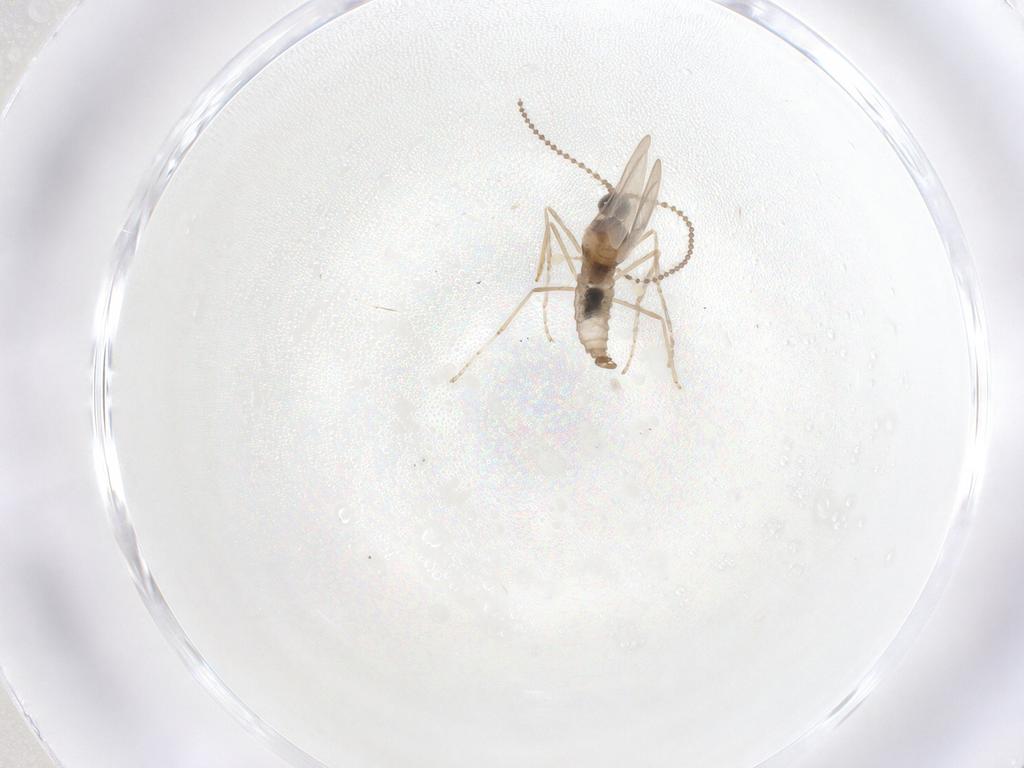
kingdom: Animalia
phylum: Arthropoda
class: Insecta
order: Diptera
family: Cecidomyiidae
